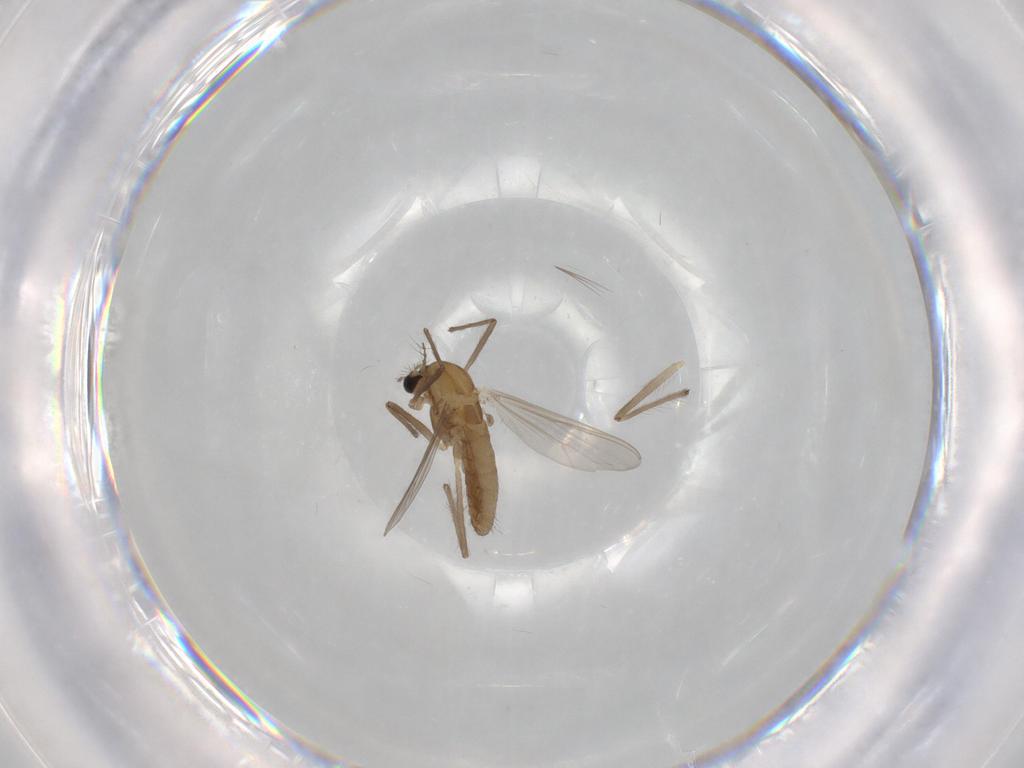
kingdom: Animalia
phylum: Arthropoda
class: Insecta
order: Diptera
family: Chironomidae
